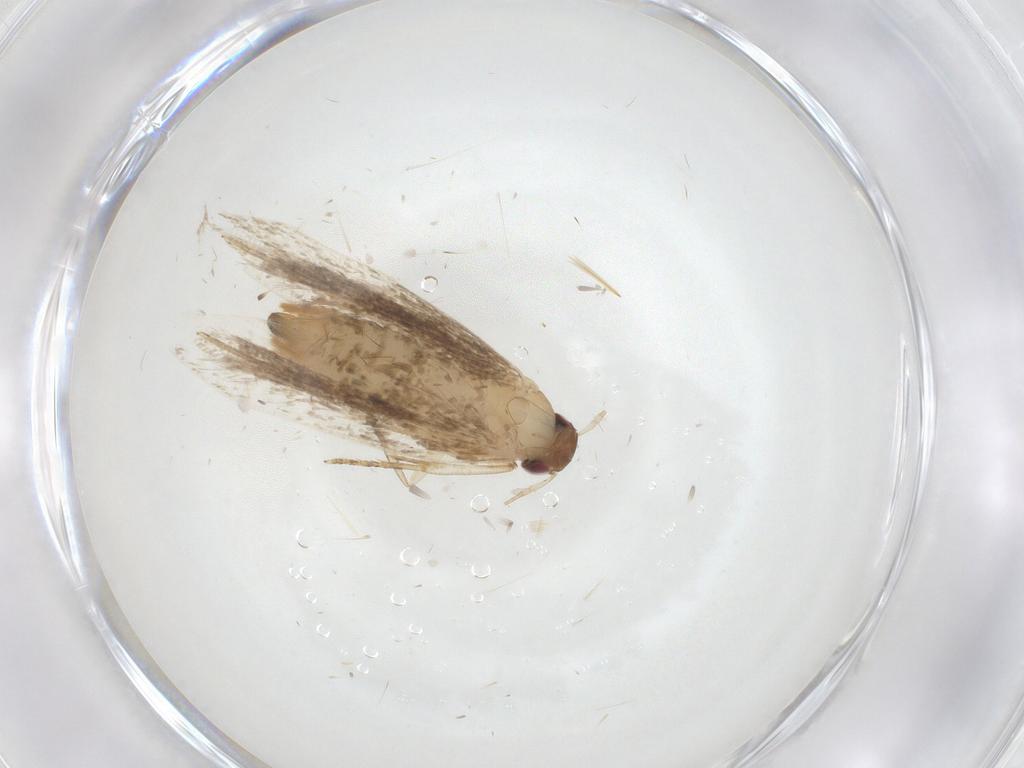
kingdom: Animalia
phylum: Arthropoda
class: Insecta
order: Lepidoptera
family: Gelechiidae
